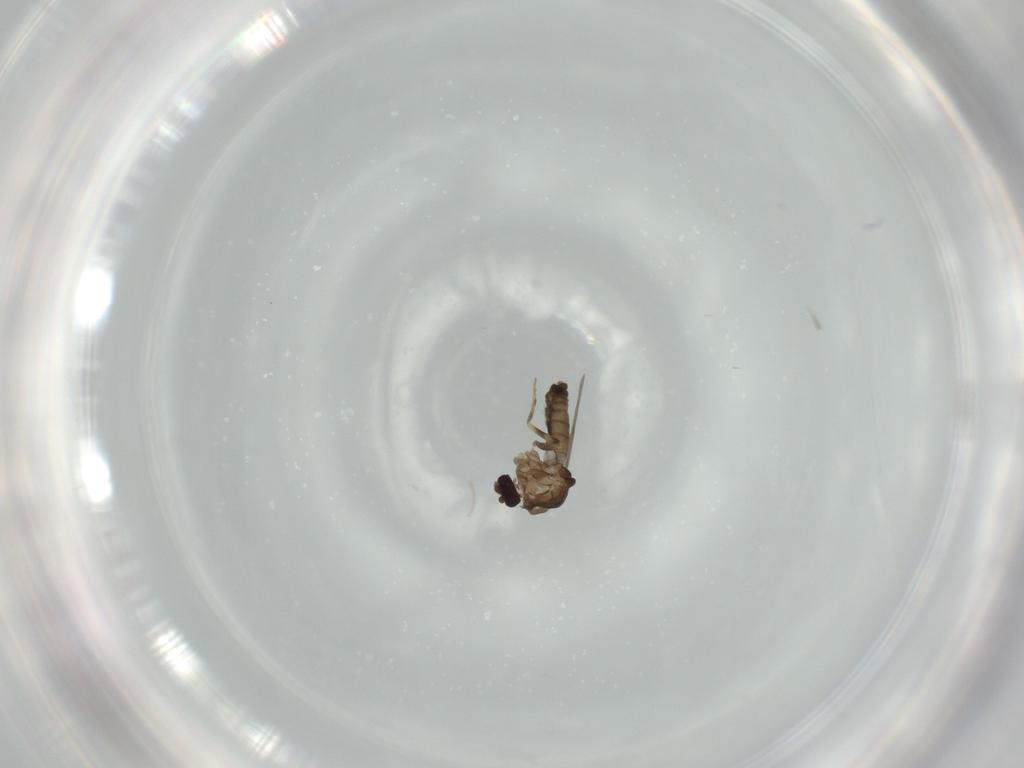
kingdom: Animalia
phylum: Arthropoda
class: Insecta
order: Diptera
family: Ceratopogonidae
